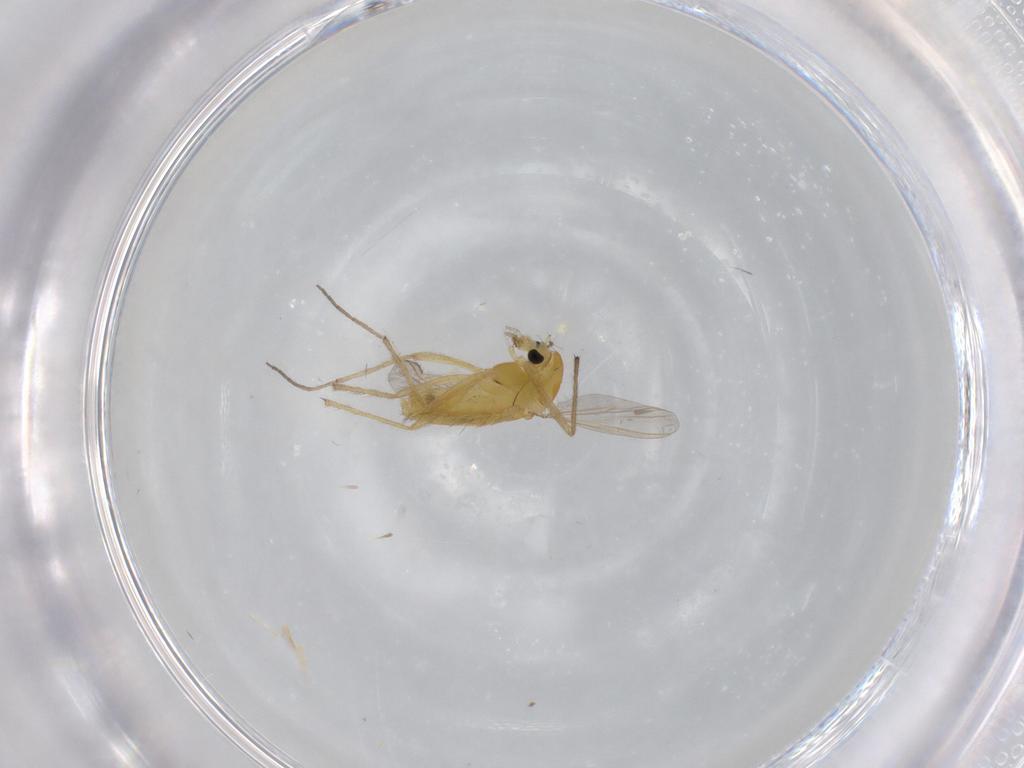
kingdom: Animalia
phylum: Arthropoda
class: Insecta
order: Diptera
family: Chironomidae
